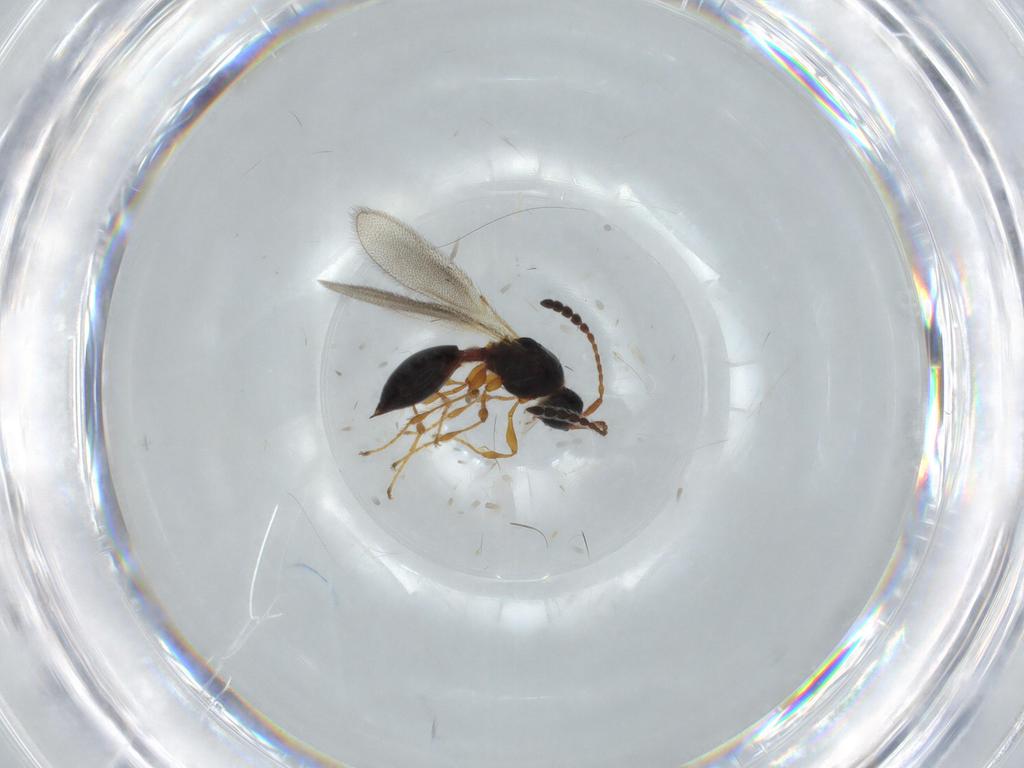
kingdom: Animalia
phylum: Arthropoda
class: Insecta
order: Hymenoptera
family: Diapriidae
